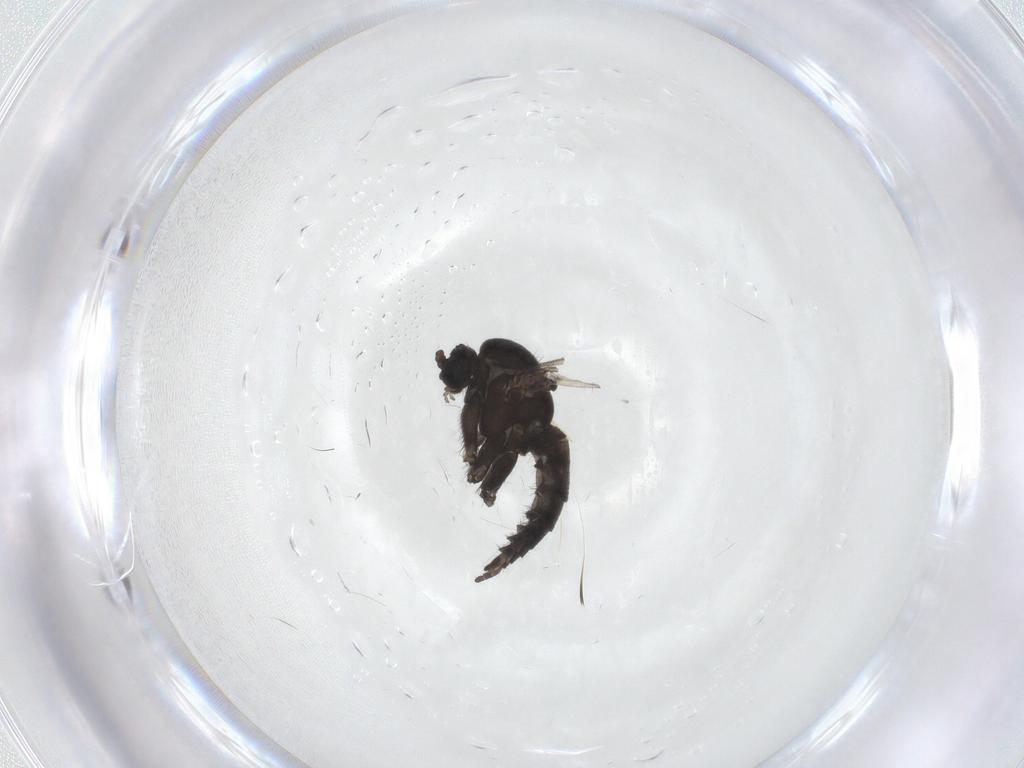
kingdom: Animalia
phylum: Arthropoda
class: Insecta
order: Diptera
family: Sciaridae
